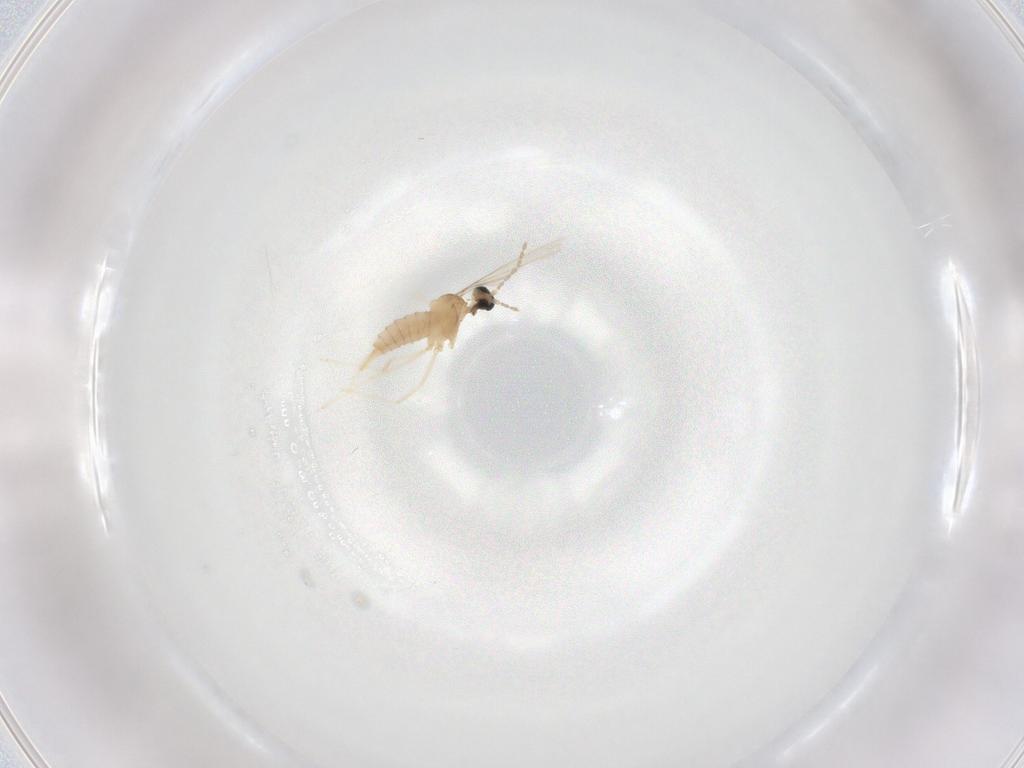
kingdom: Animalia
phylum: Arthropoda
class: Insecta
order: Diptera
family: Cecidomyiidae
